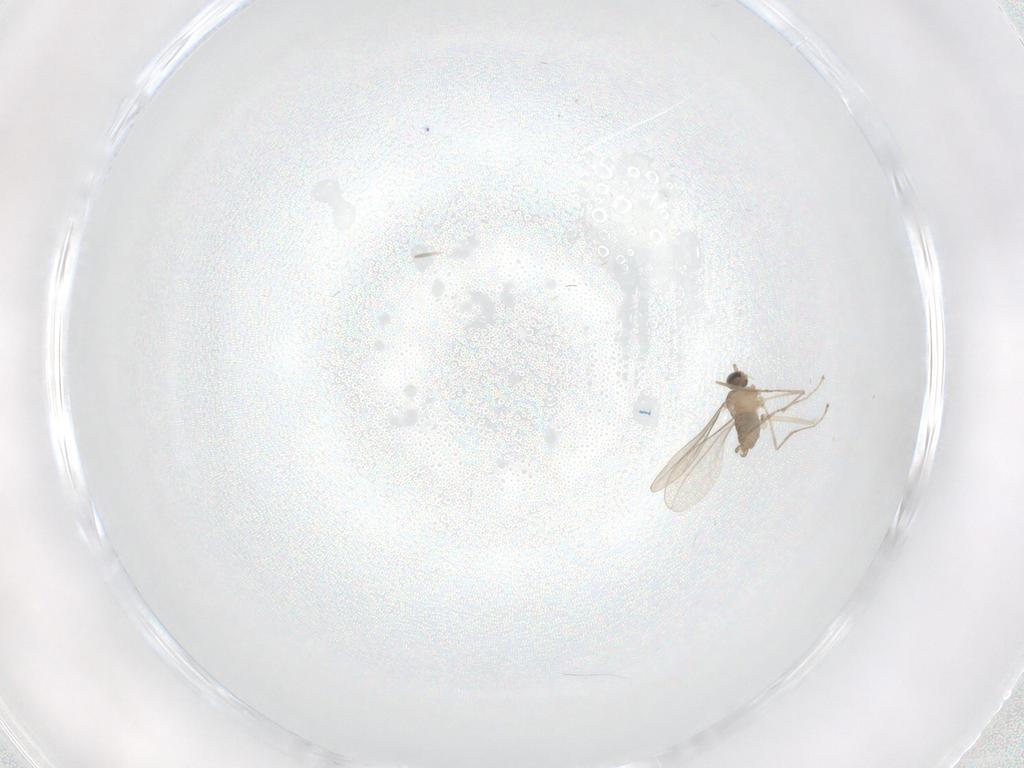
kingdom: Animalia
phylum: Arthropoda
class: Insecta
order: Diptera
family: Cecidomyiidae
